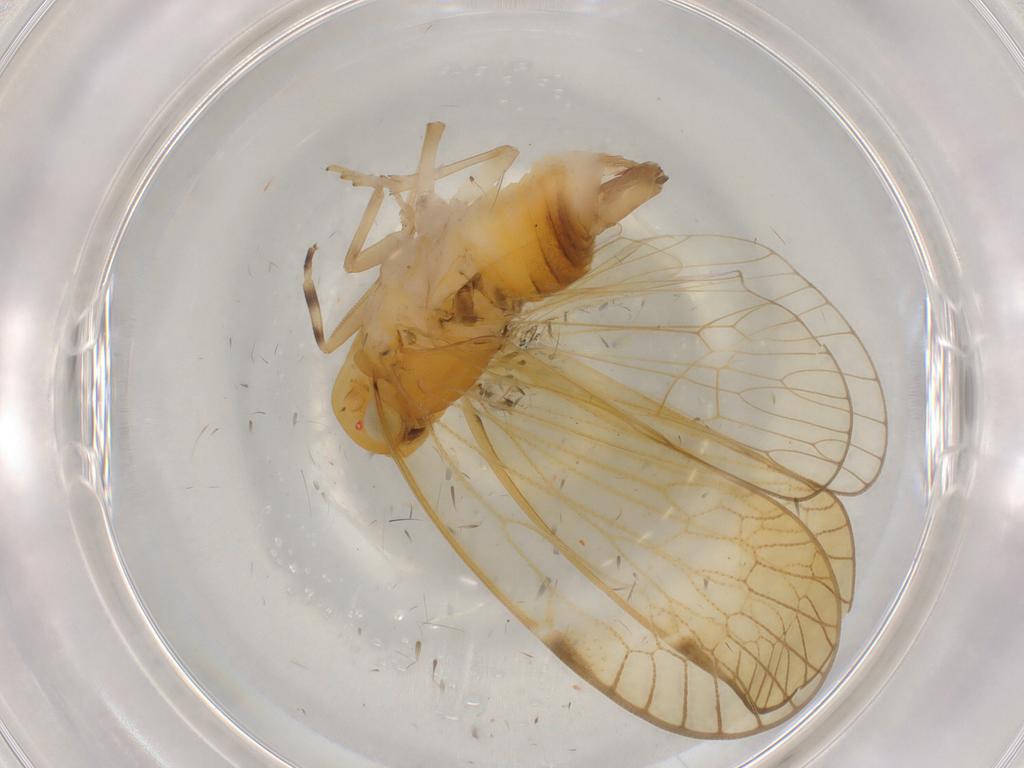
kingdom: Animalia
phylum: Arthropoda
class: Insecta
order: Hemiptera
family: Cixiidae
